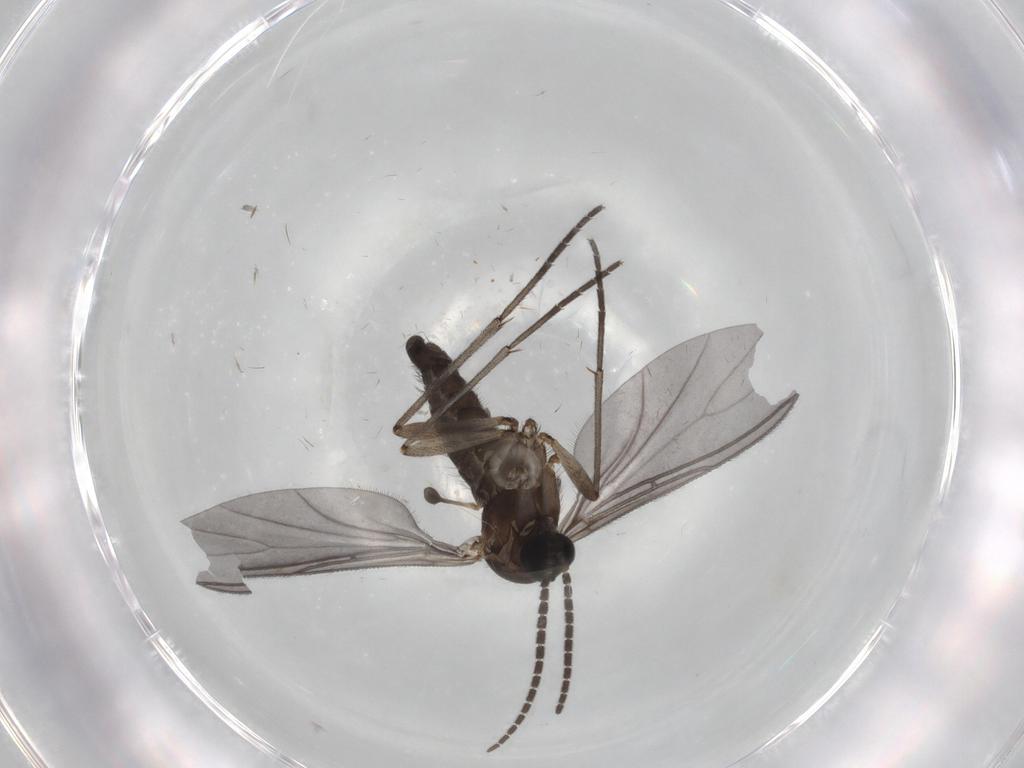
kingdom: Animalia
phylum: Arthropoda
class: Insecta
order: Diptera
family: Sciaridae
